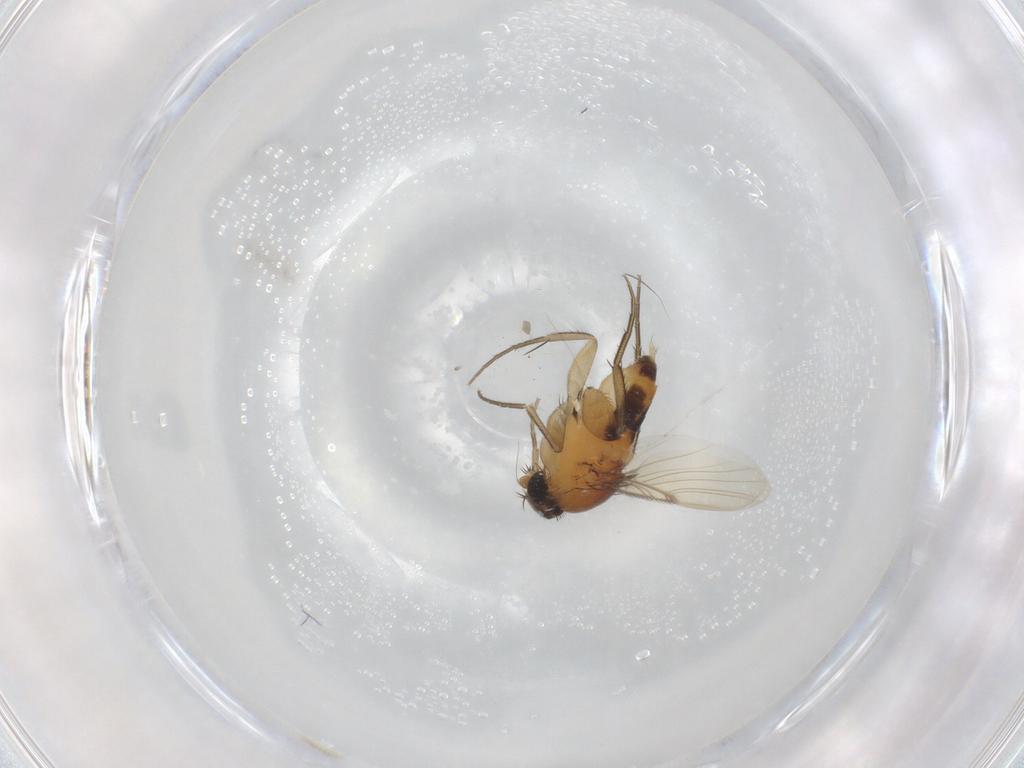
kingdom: Animalia
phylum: Arthropoda
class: Insecta
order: Diptera
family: Phoridae
